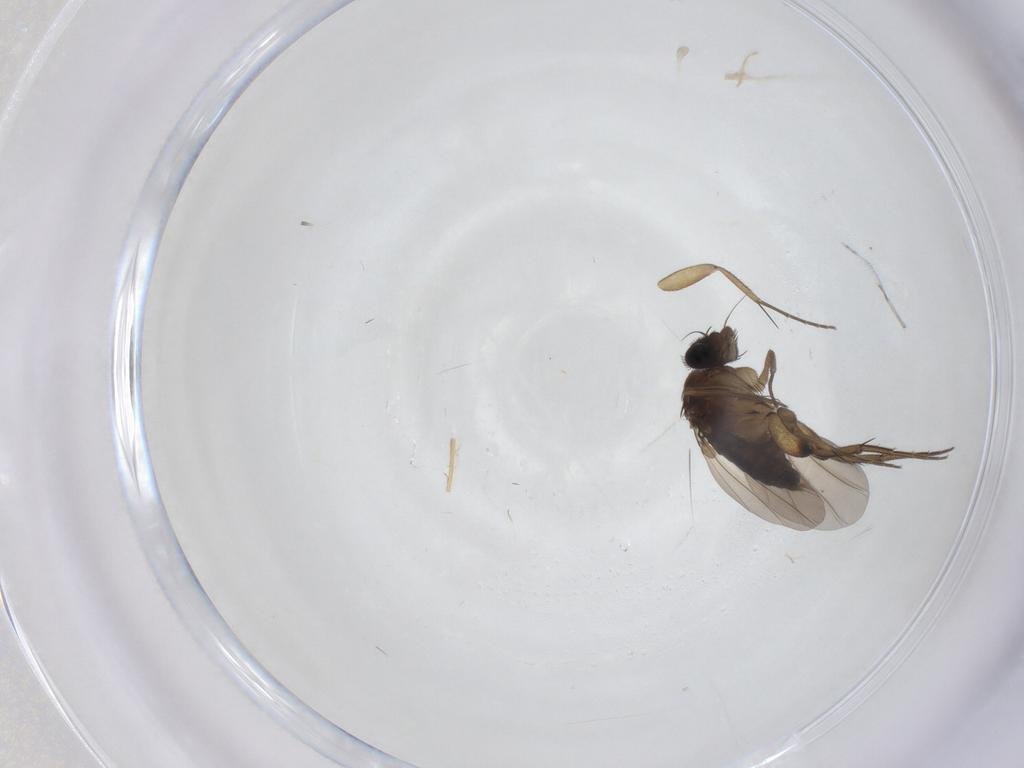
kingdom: Animalia
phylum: Arthropoda
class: Insecta
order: Diptera
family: Phoridae
